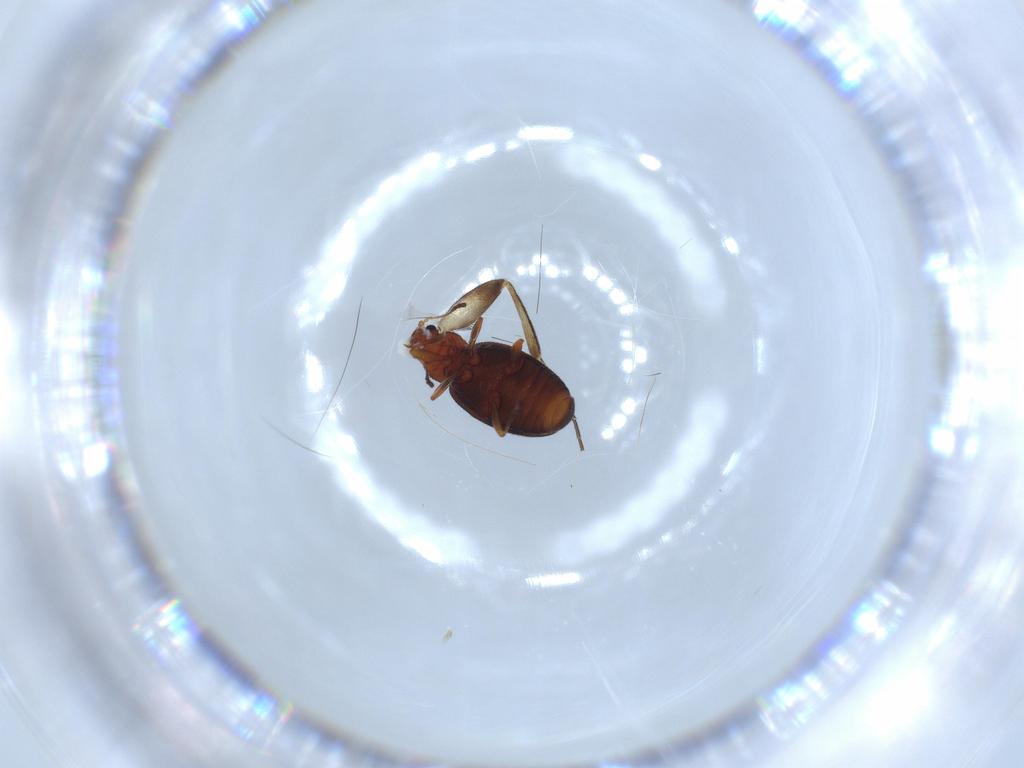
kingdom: Animalia
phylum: Arthropoda
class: Insecta
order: Coleoptera
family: Latridiidae
